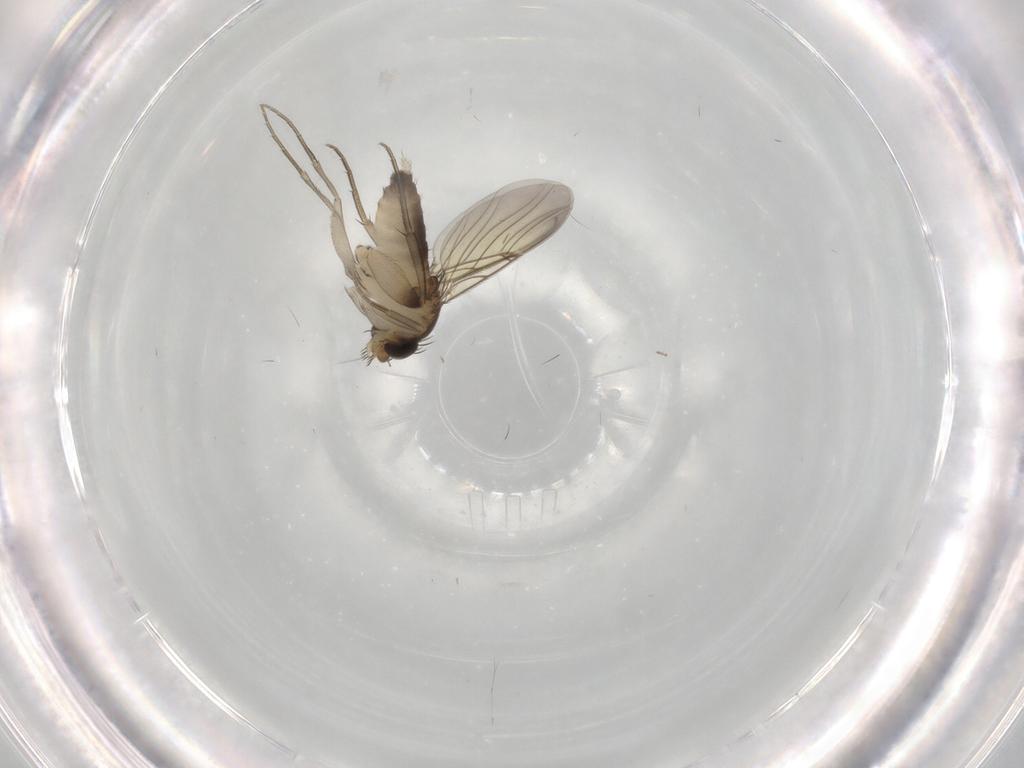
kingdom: Animalia
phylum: Arthropoda
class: Insecta
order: Diptera
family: Phoridae
